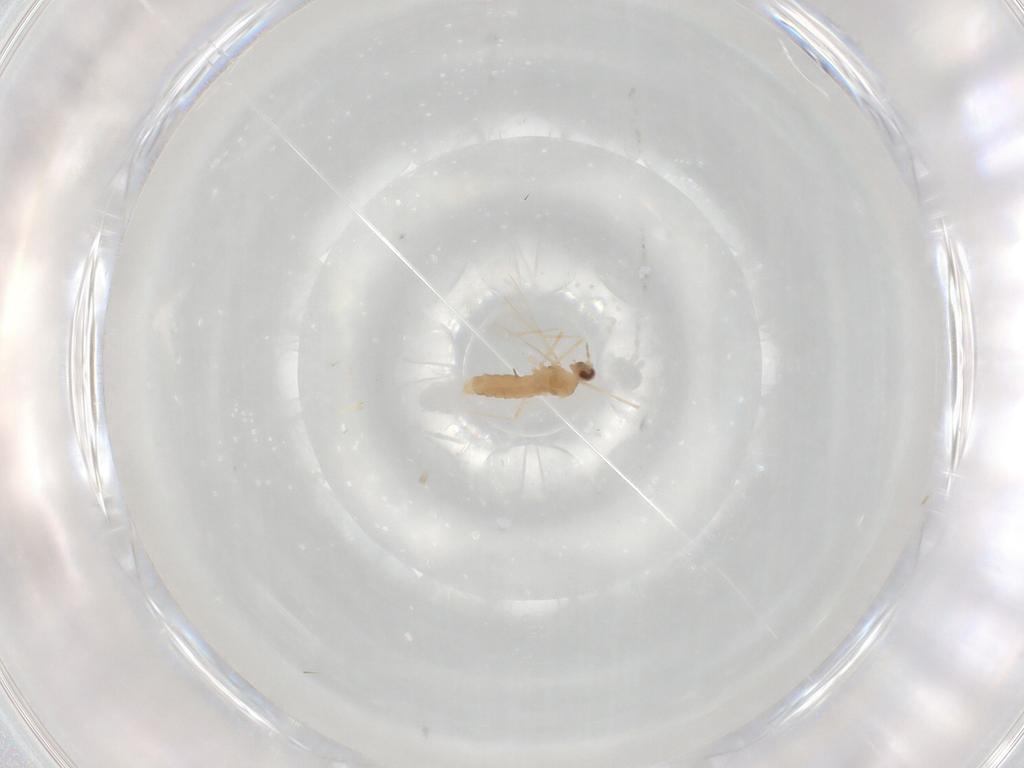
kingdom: Animalia
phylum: Arthropoda
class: Insecta
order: Diptera
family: Cecidomyiidae
